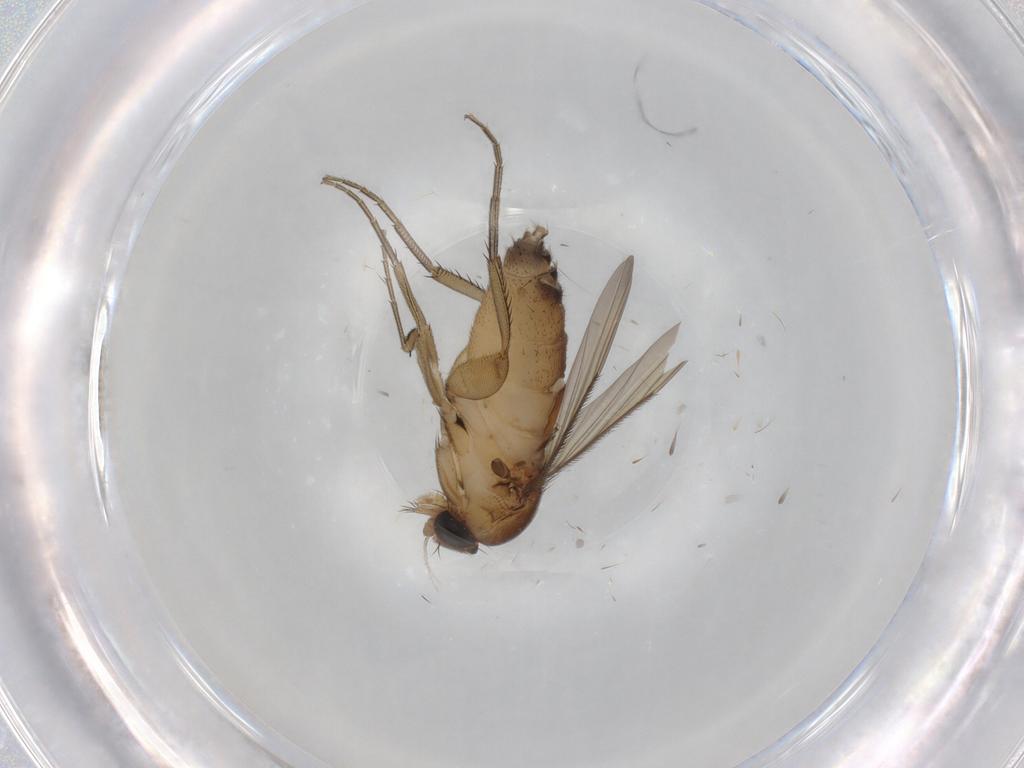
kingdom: Animalia
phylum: Arthropoda
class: Insecta
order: Diptera
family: Phoridae
